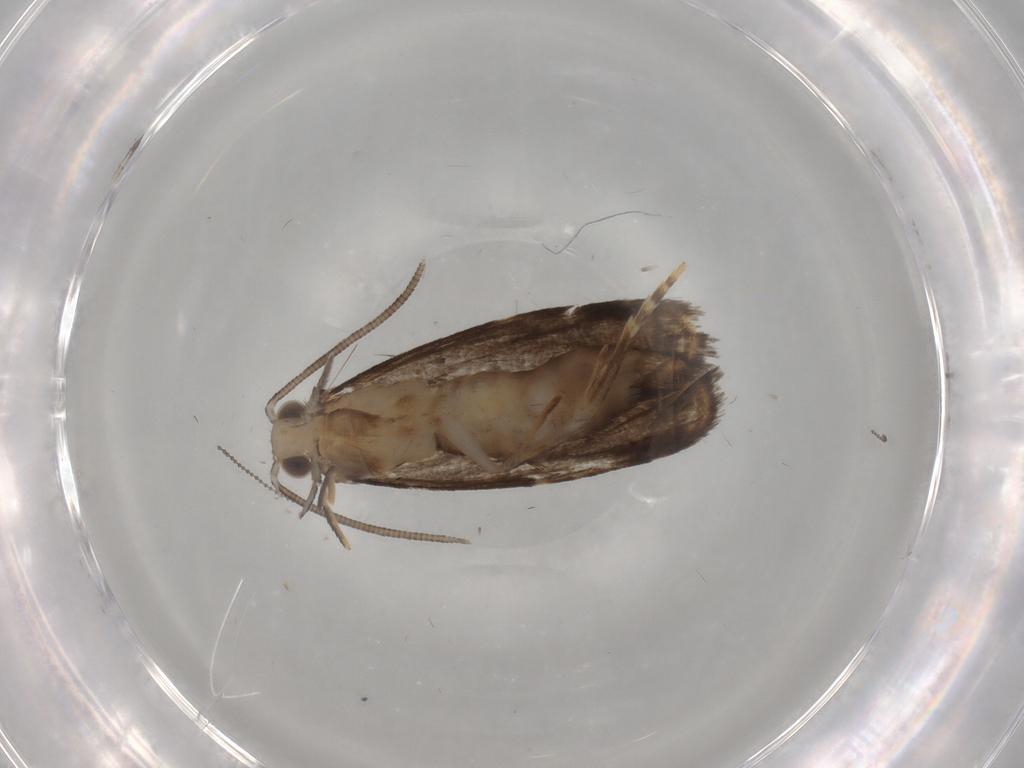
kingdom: Animalia
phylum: Arthropoda
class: Insecta
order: Lepidoptera
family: Dryadaulidae
